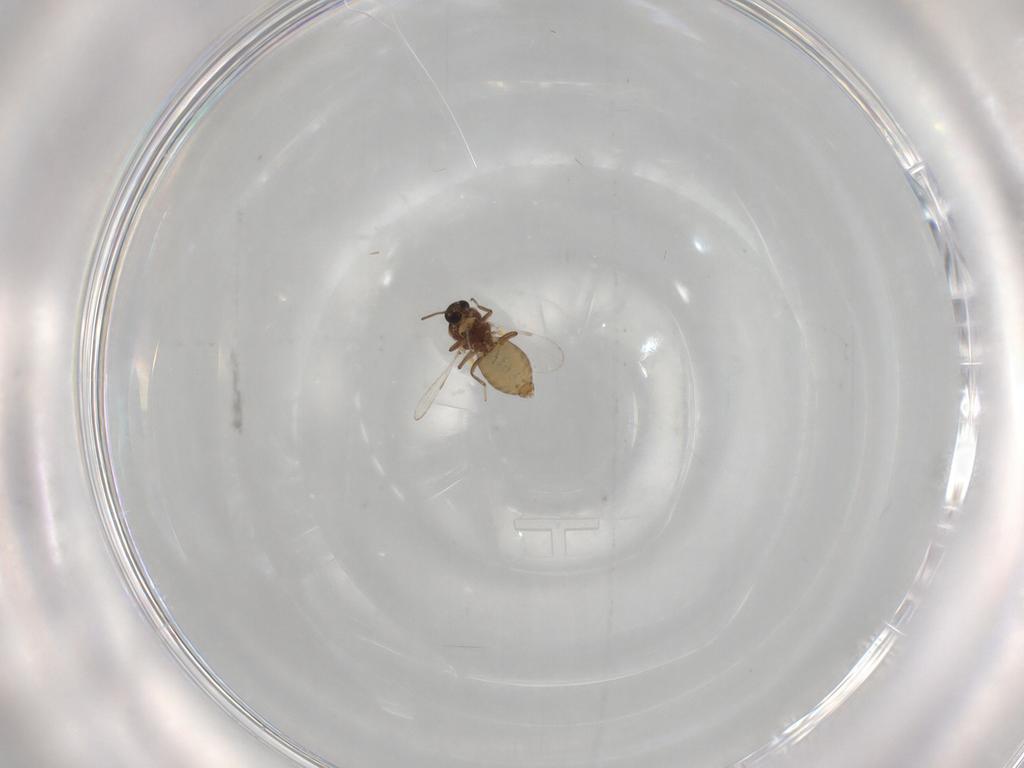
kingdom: Animalia
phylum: Arthropoda
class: Insecta
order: Diptera
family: Ceratopogonidae
